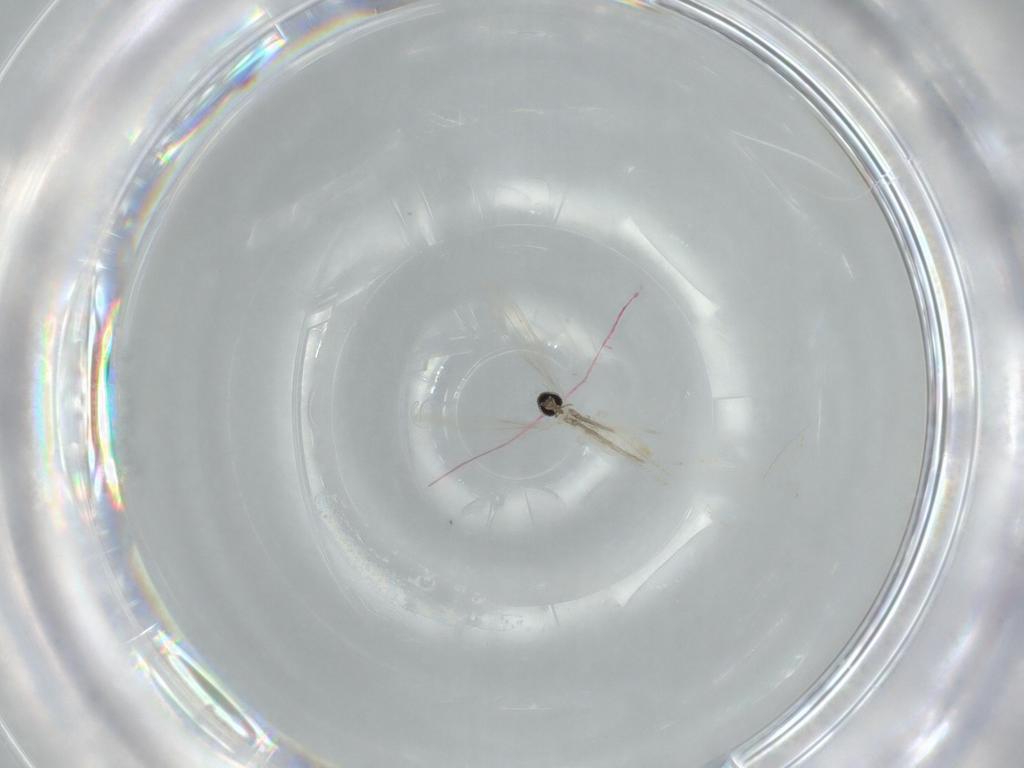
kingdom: Animalia
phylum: Arthropoda
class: Insecta
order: Diptera
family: Cecidomyiidae
